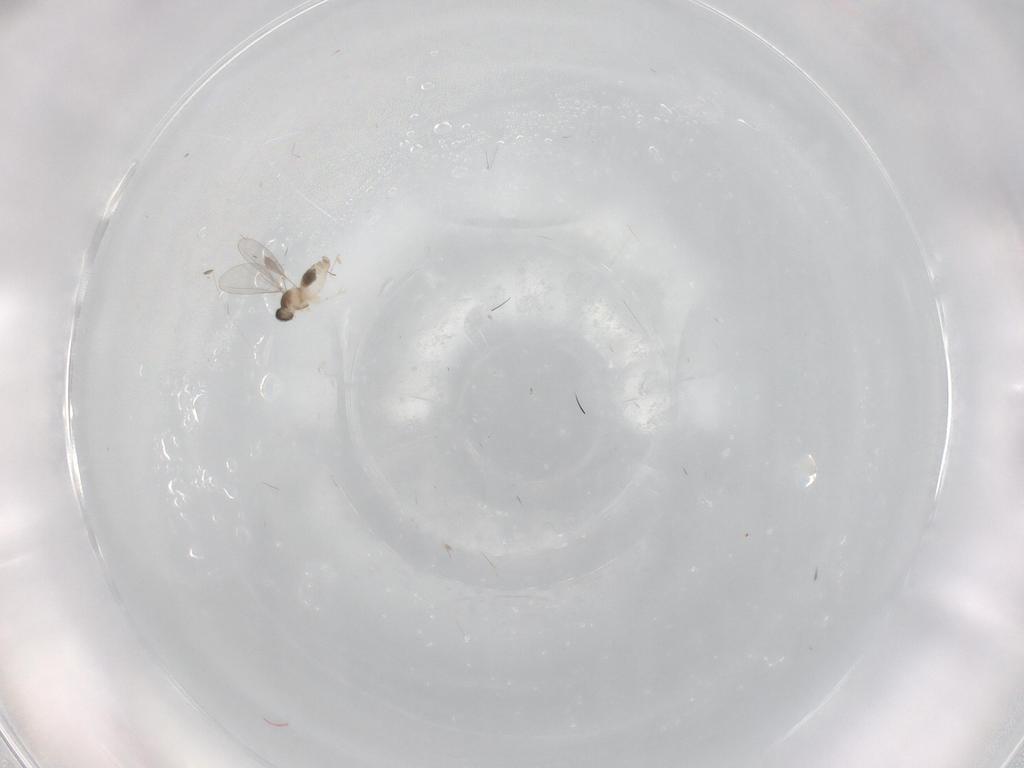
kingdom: Animalia
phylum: Arthropoda
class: Insecta
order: Diptera
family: Cecidomyiidae
